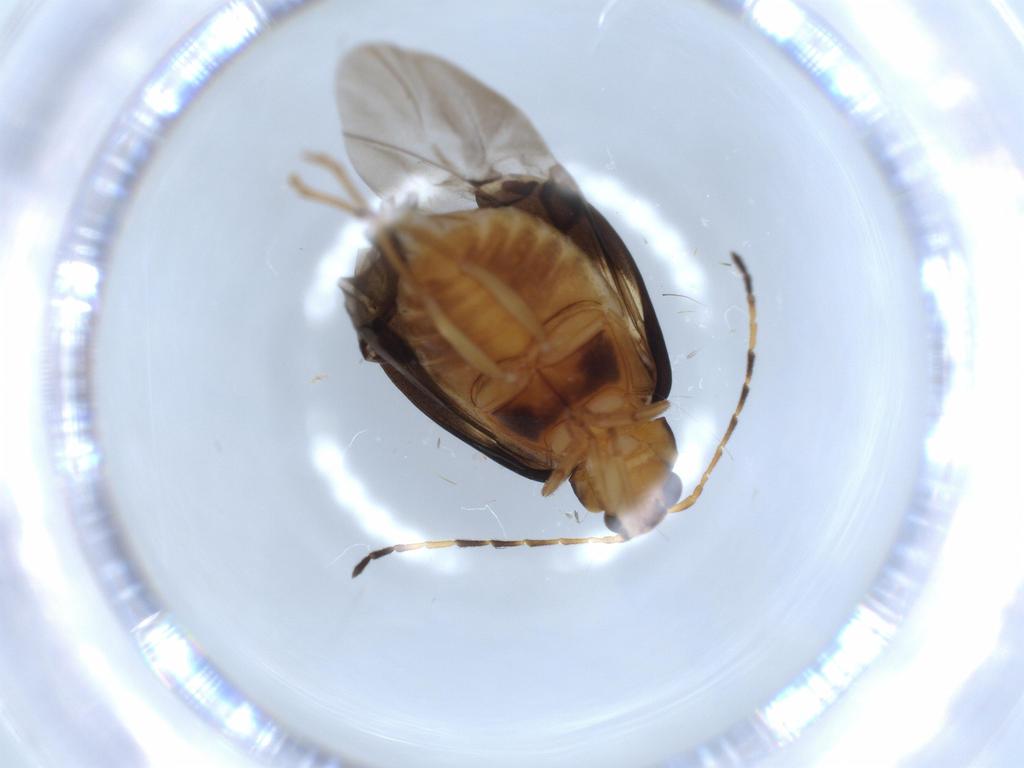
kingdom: Animalia
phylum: Arthropoda
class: Insecta
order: Coleoptera
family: Chrysomelidae
